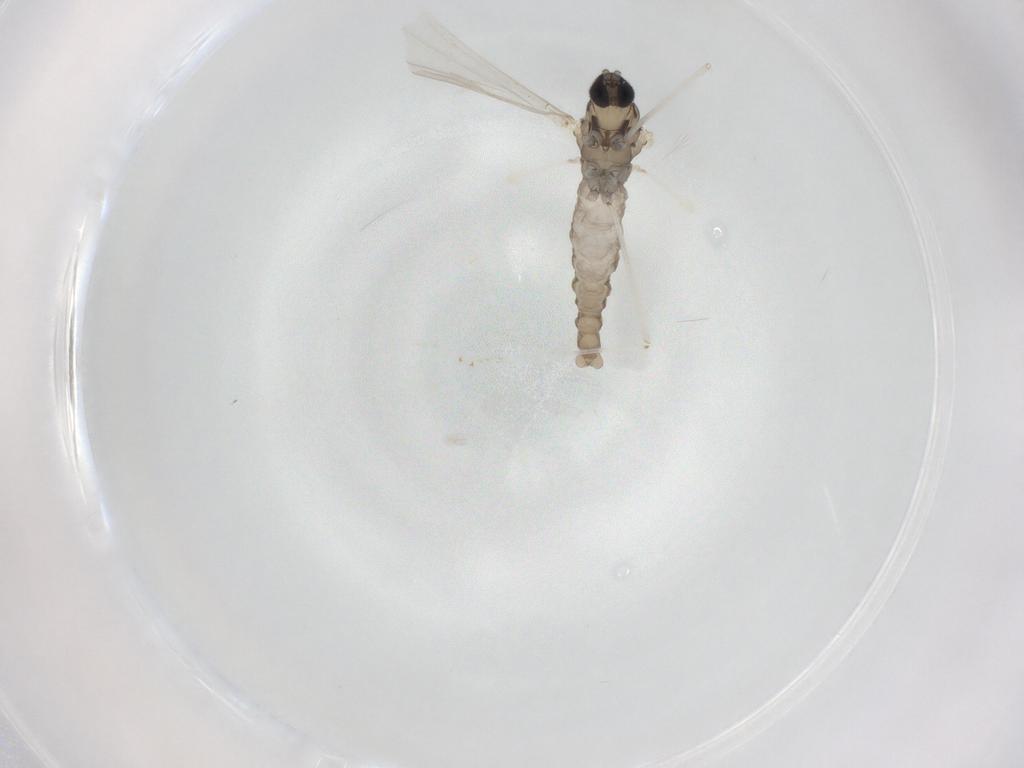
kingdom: Animalia
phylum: Arthropoda
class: Insecta
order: Diptera
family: Cecidomyiidae
